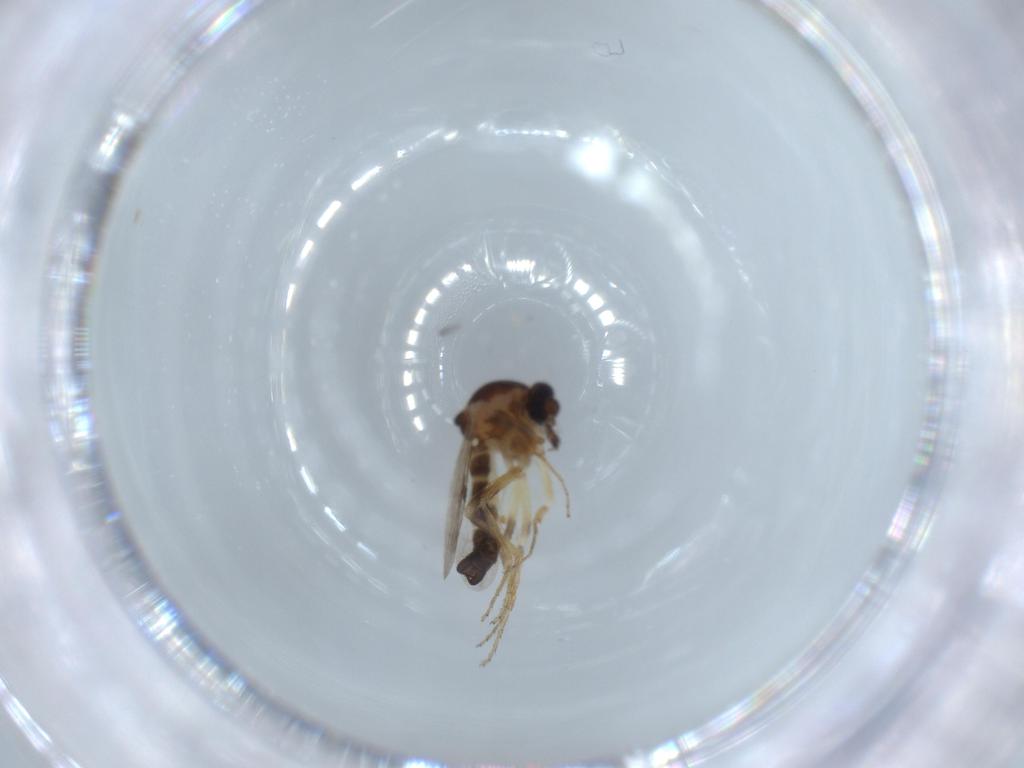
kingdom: Animalia
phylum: Arthropoda
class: Insecta
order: Diptera
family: Ceratopogonidae
